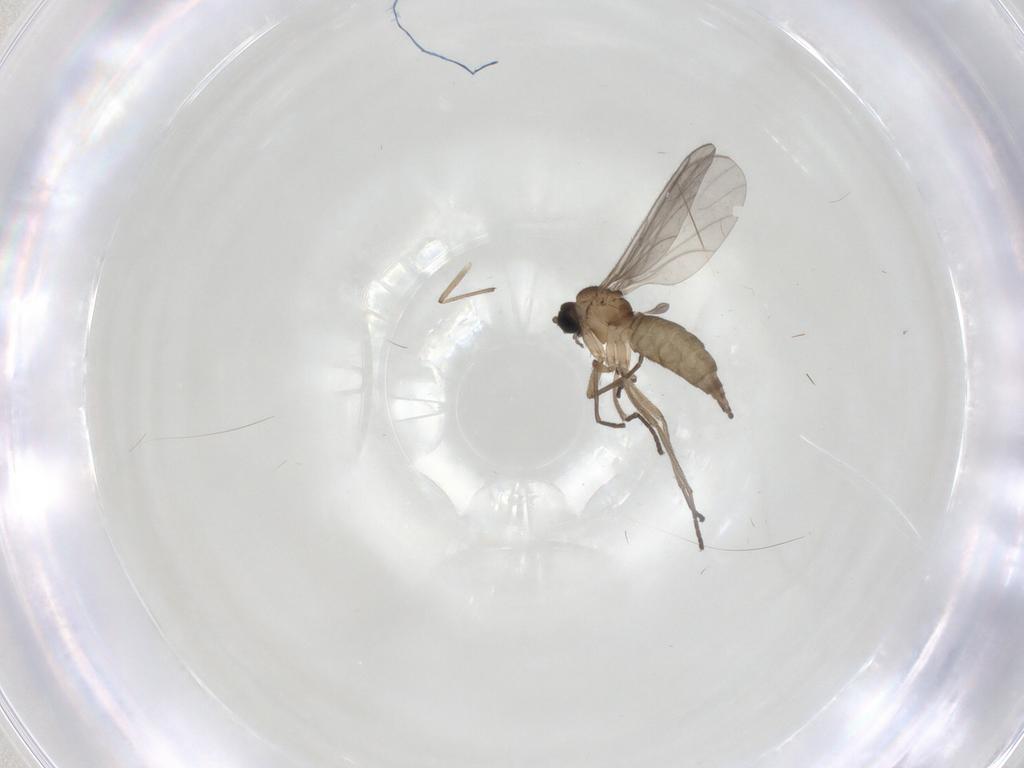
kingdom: Animalia
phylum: Arthropoda
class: Insecta
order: Diptera
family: Sciaridae
